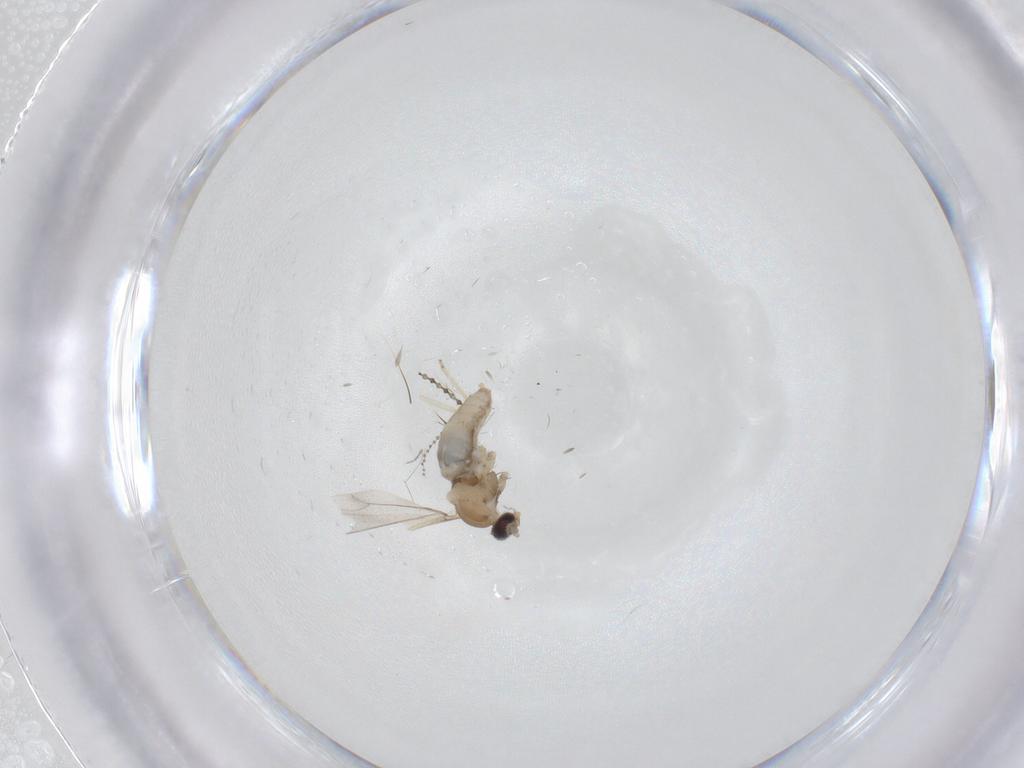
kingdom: Animalia
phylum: Arthropoda
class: Insecta
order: Diptera
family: Cecidomyiidae
